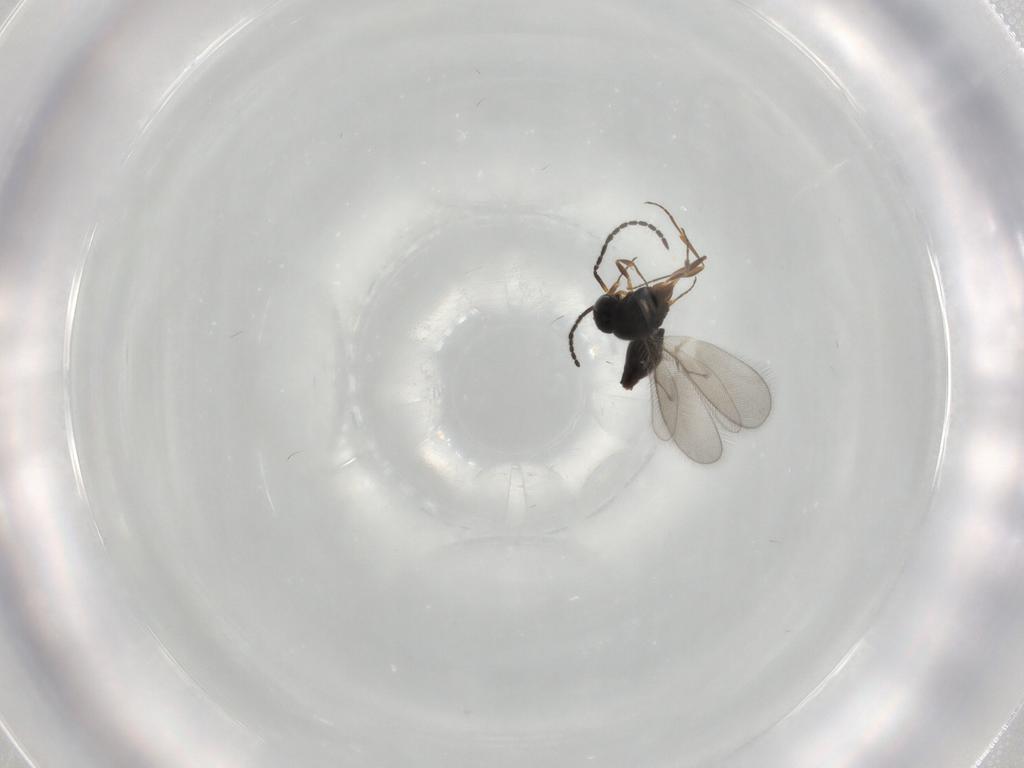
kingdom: Animalia
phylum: Arthropoda
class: Insecta
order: Hymenoptera
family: Scelionidae
